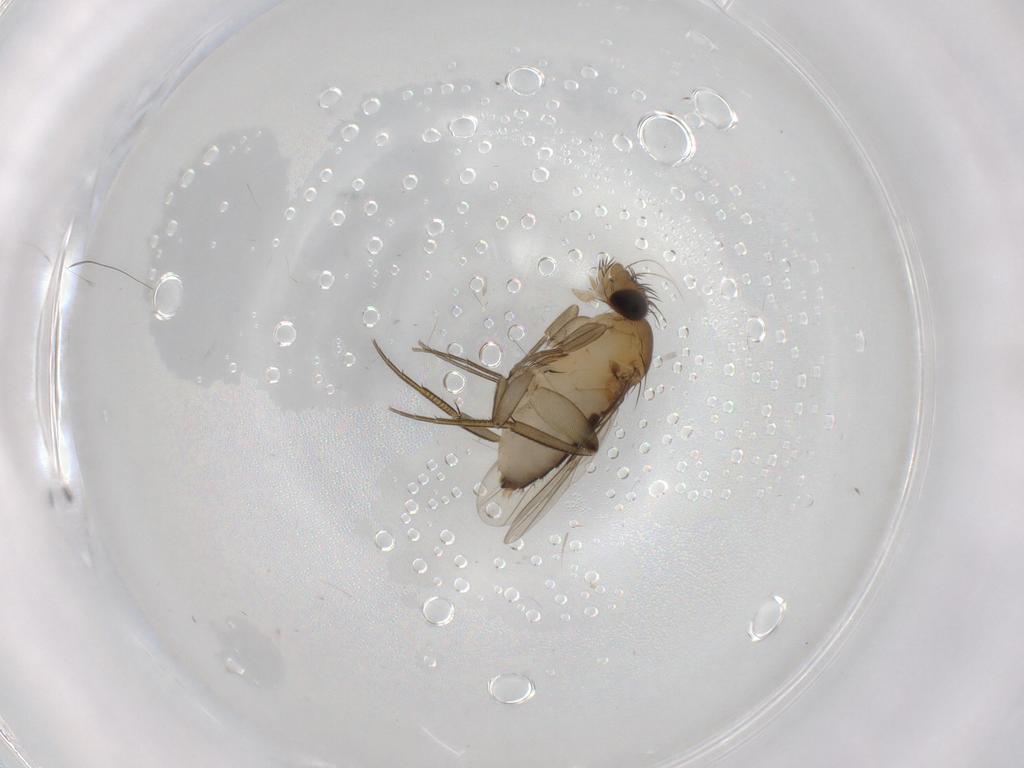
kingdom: Animalia
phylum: Arthropoda
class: Insecta
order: Diptera
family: Phoridae
